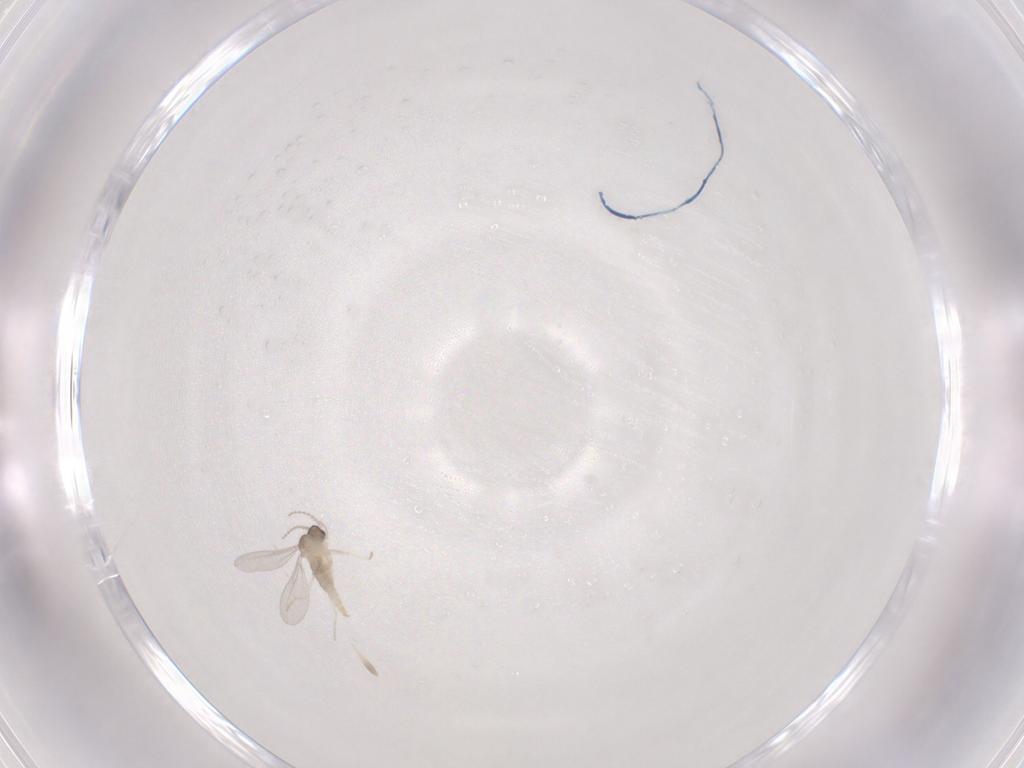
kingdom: Animalia
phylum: Arthropoda
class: Insecta
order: Diptera
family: Cecidomyiidae
